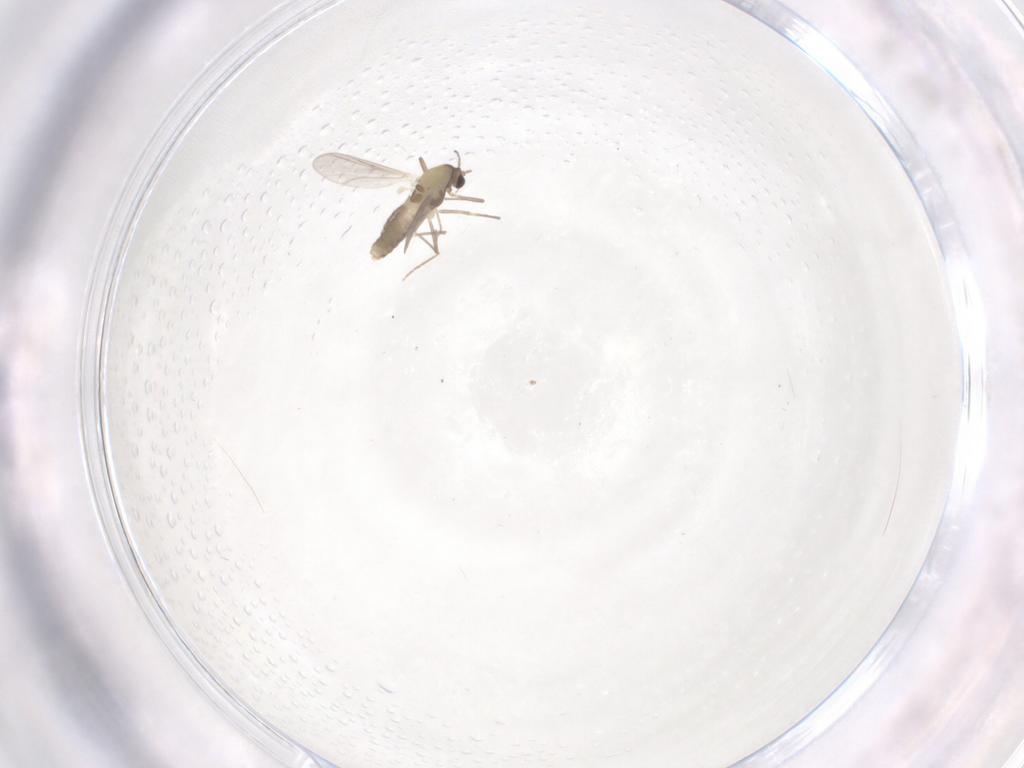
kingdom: Animalia
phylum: Arthropoda
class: Insecta
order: Diptera
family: Chironomidae
